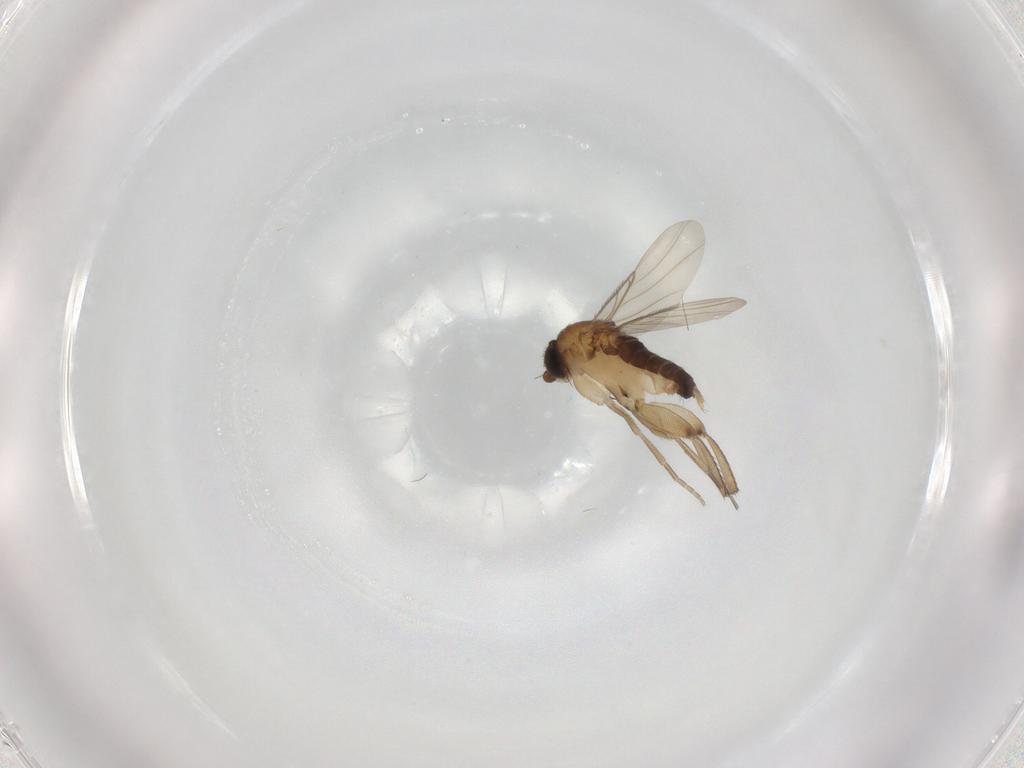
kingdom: Animalia
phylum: Arthropoda
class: Insecta
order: Diptera
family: Phoridae
